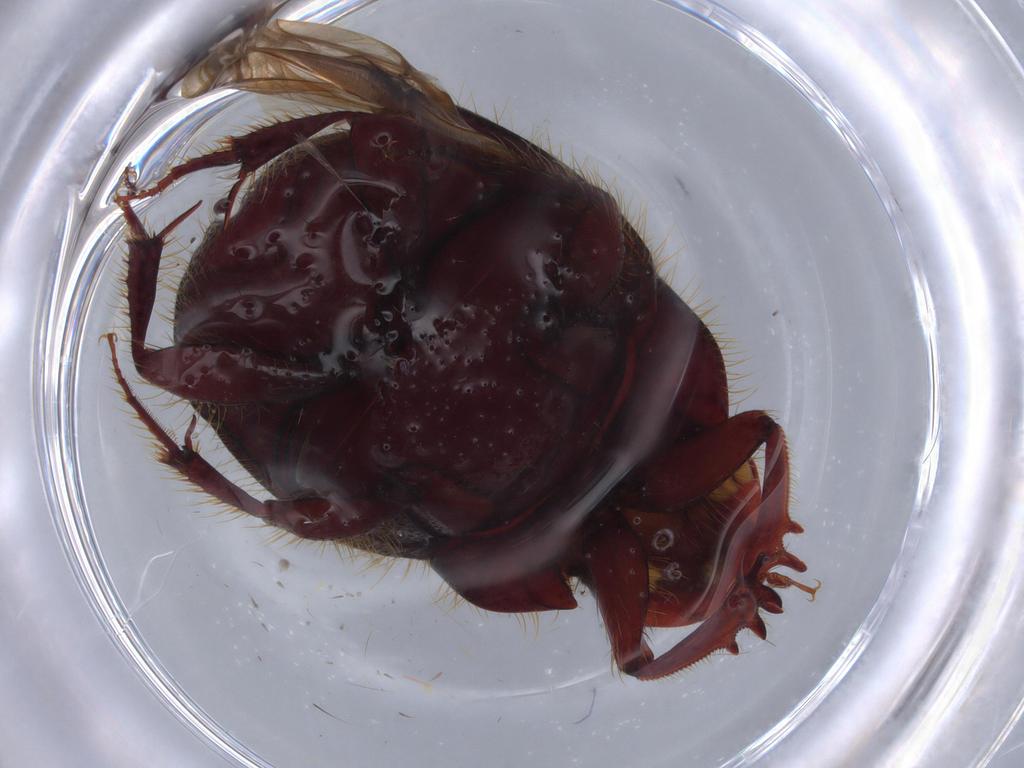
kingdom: Animalia
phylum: Arthropoda
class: Insecta
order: Coleoptera
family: Scarabaeidae
